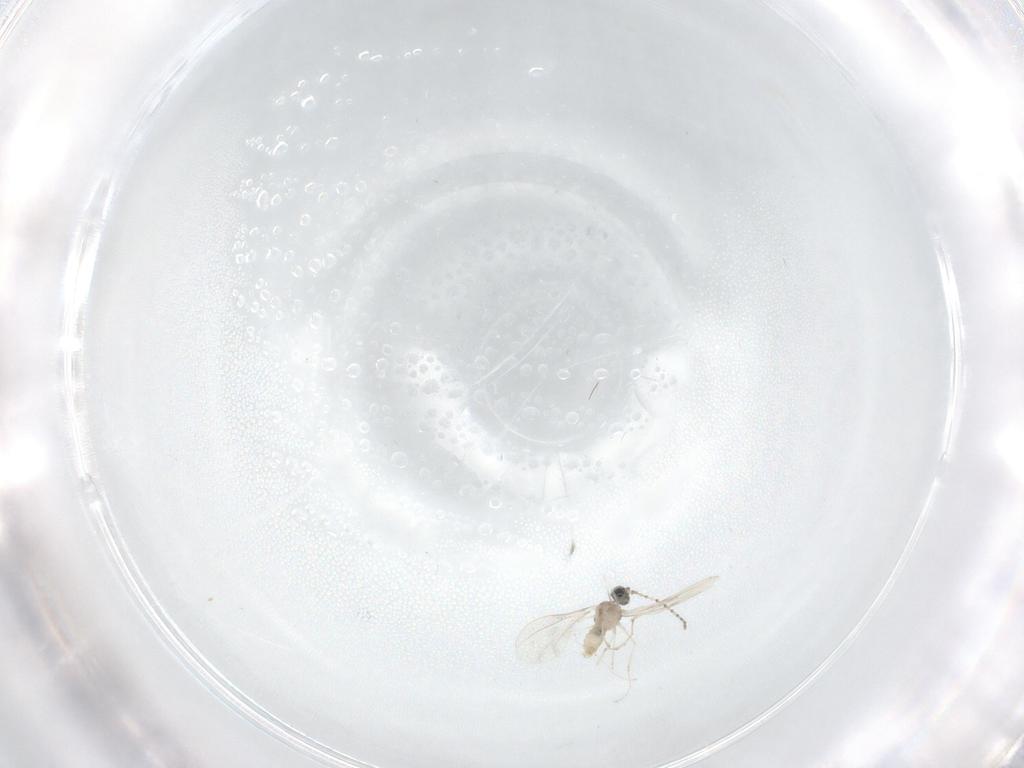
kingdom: Animalia
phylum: Arthropoda
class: Insecta
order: Diptera
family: Cecidomyiidae
